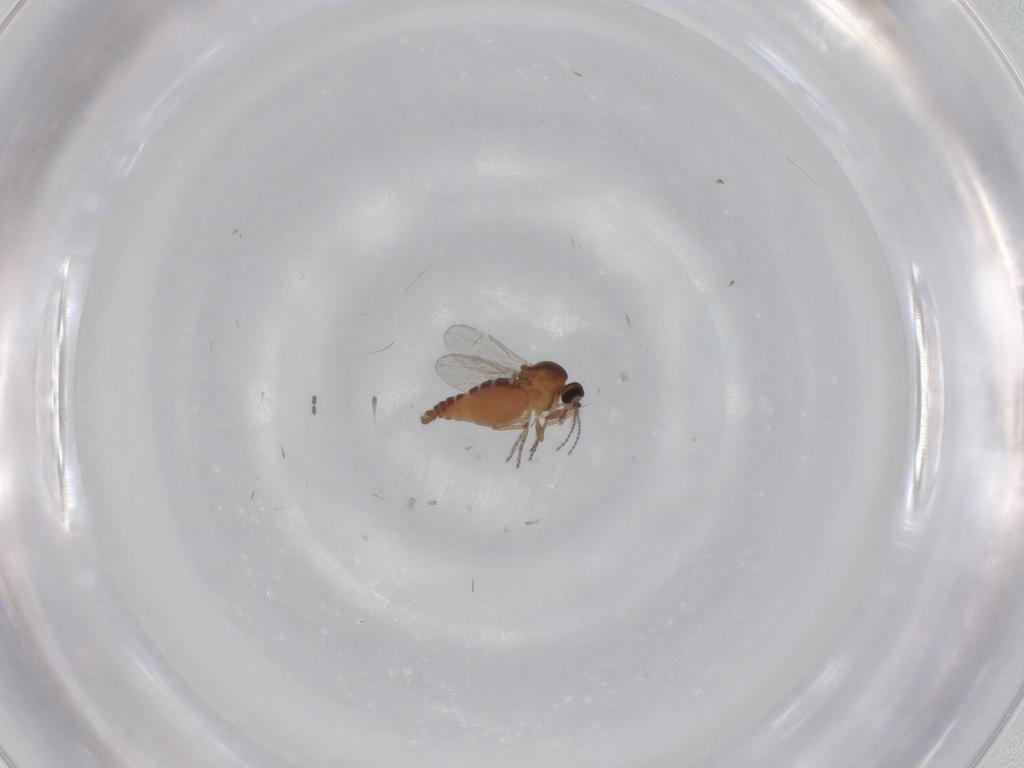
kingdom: Animalia
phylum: Arthropoda
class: Insecta
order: Diptera
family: Ceratopogonidae
